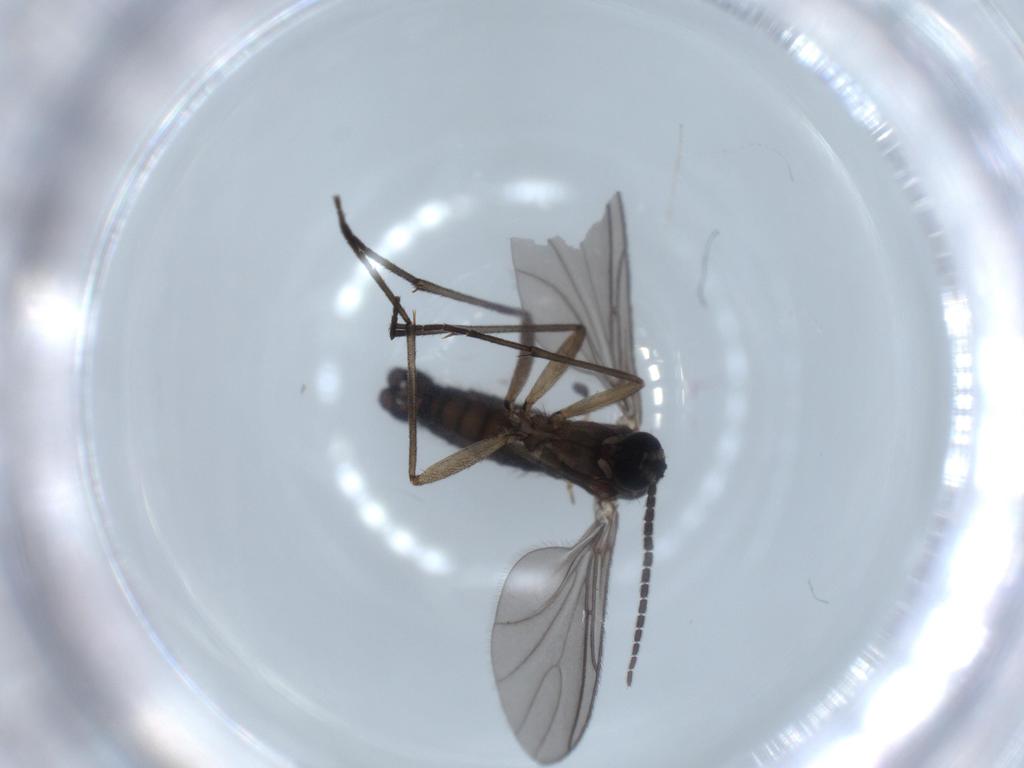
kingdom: Animalia
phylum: Arthropoda
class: Insecta
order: Diptera
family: Sciaridae
